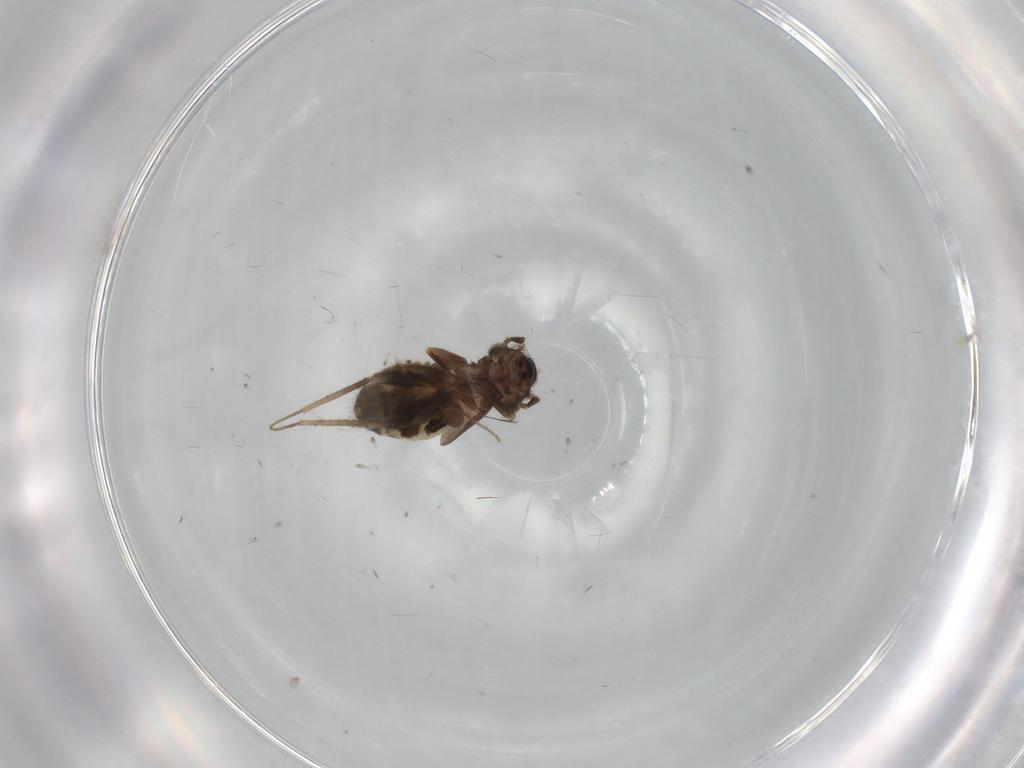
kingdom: Animalia
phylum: Arthropoda
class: Insecta
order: Psocodea
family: Lepidopsocidae
